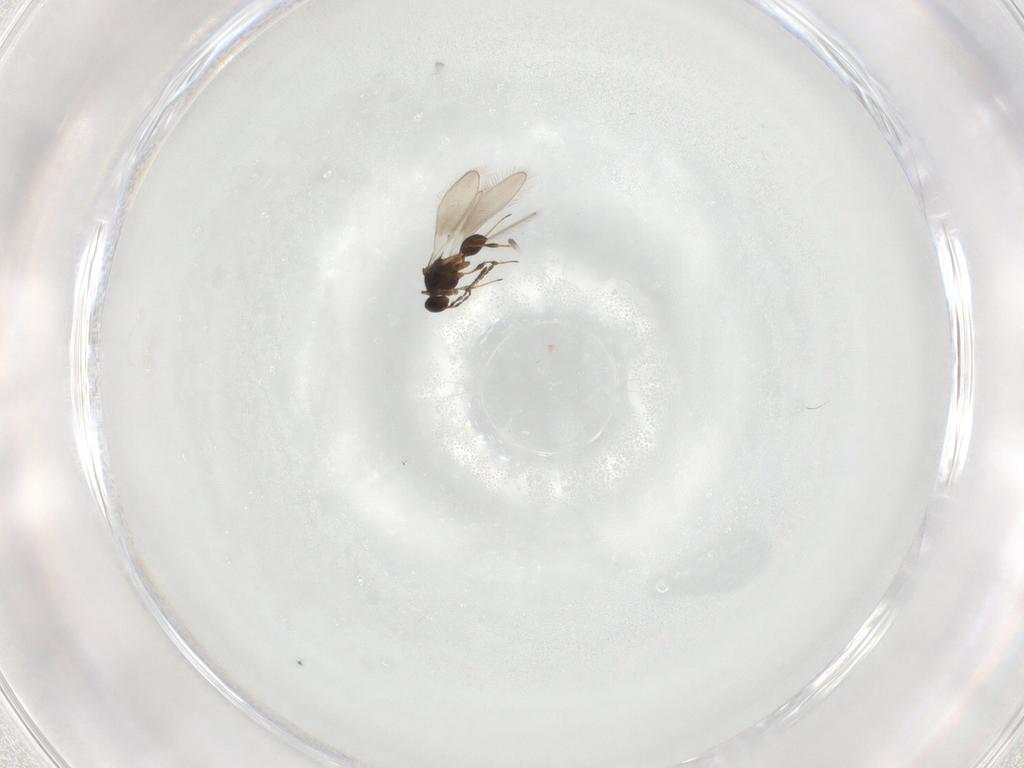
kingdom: Animalia
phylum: Arthropoda
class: Insecta
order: Hymenoptera
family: Platygastridae
